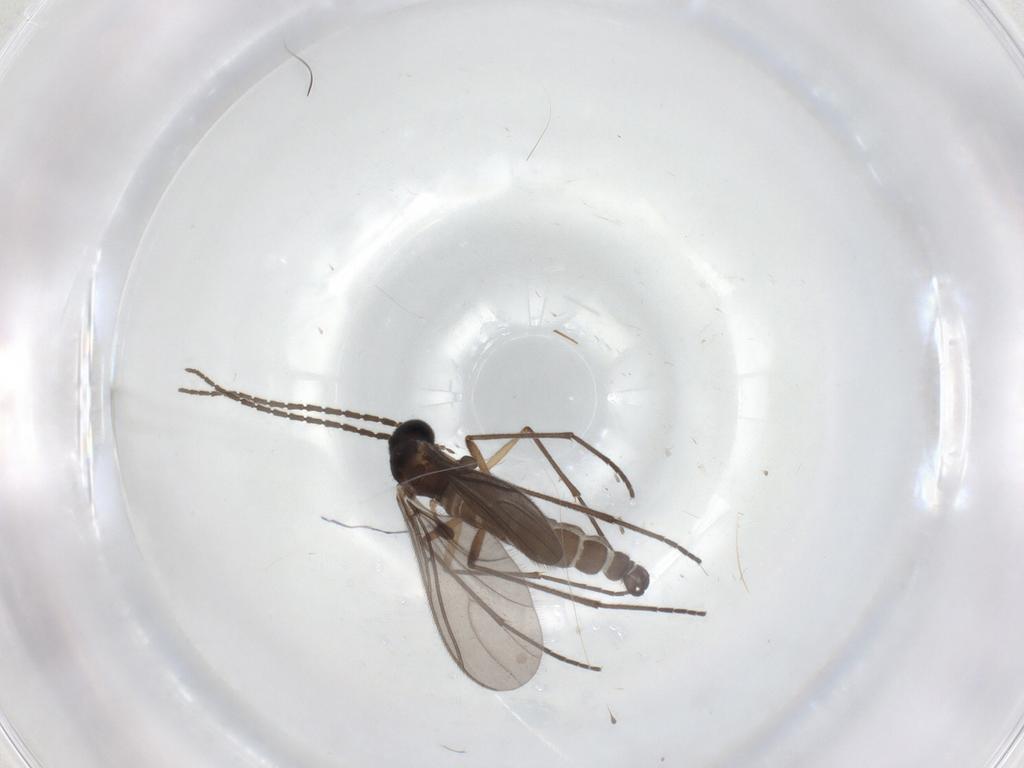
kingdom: Animalia
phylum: Arthropoda
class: Insecta
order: Diptera
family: Sciaridae
